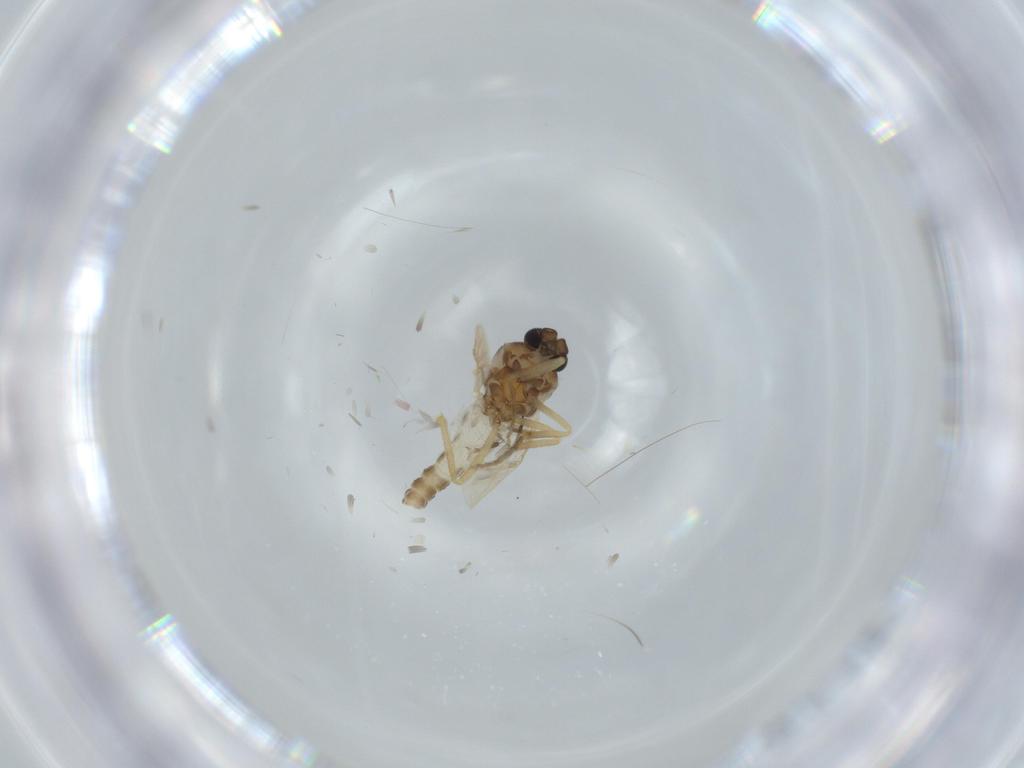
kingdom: Animalia
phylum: Arthropoda
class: Insecta
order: Diptera
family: Ceratopogonidae
